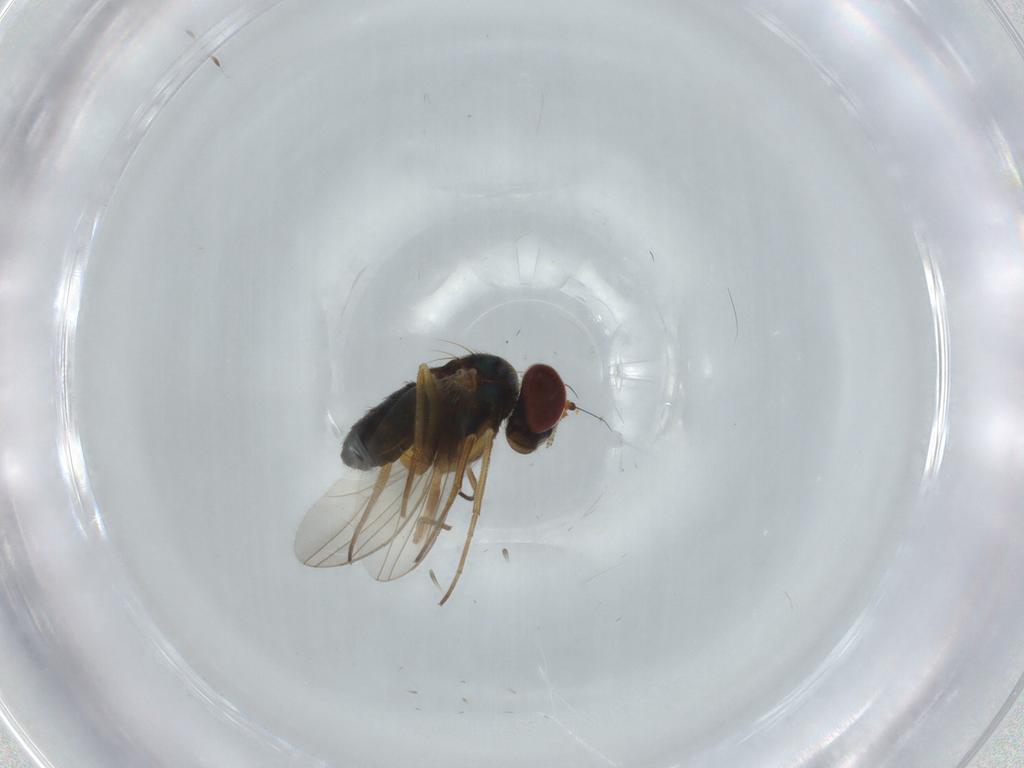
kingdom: Animalia
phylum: Arthropoda
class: Insecta
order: Diptera
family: Dolichopodidae
